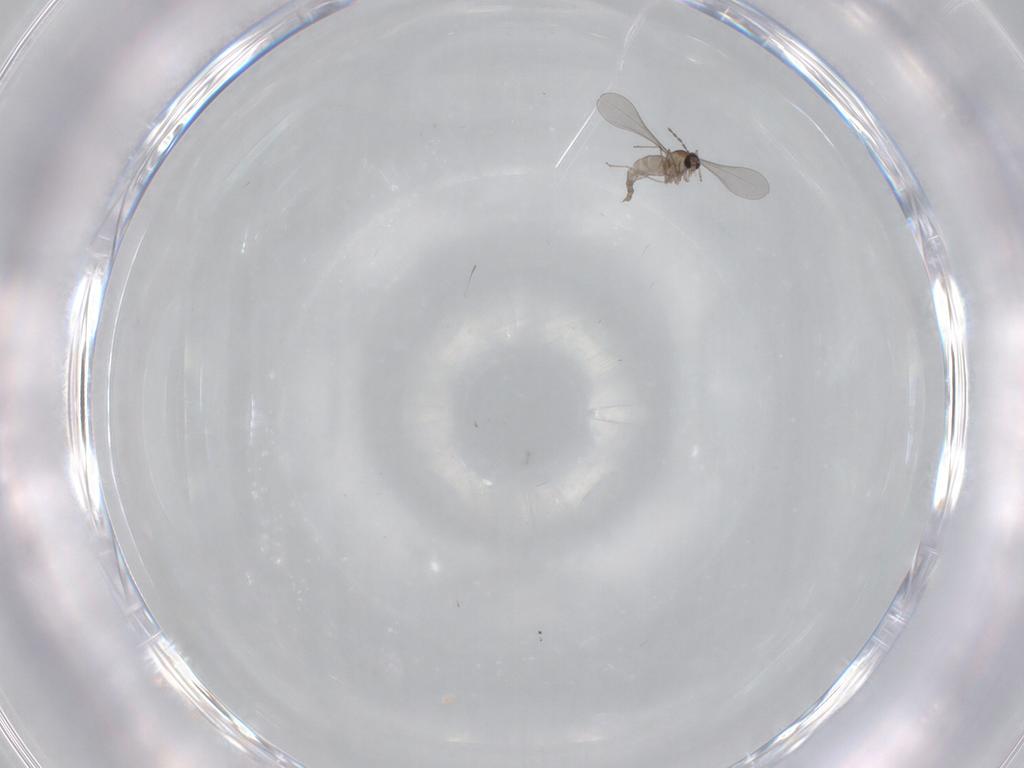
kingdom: Animalia
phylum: Arthropoda
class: Insecta
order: Diptera
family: Cecidomyiidae
